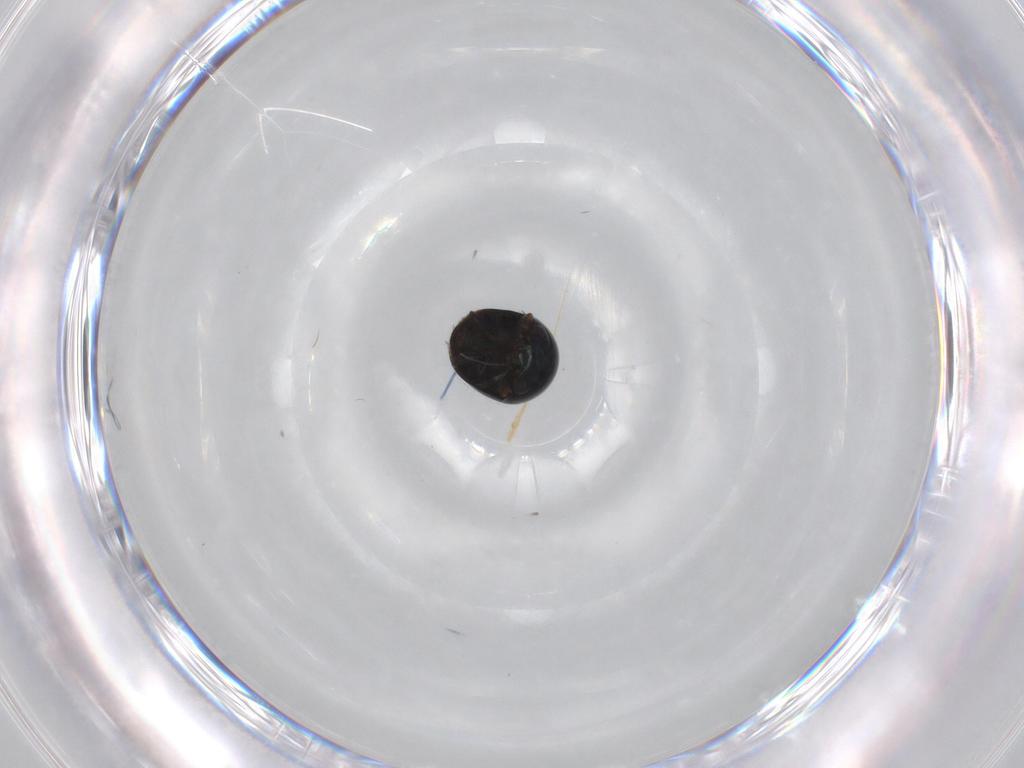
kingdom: Animalia
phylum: Arthropoda
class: Insecta
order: Coleoptera
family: Cybocephalidae
